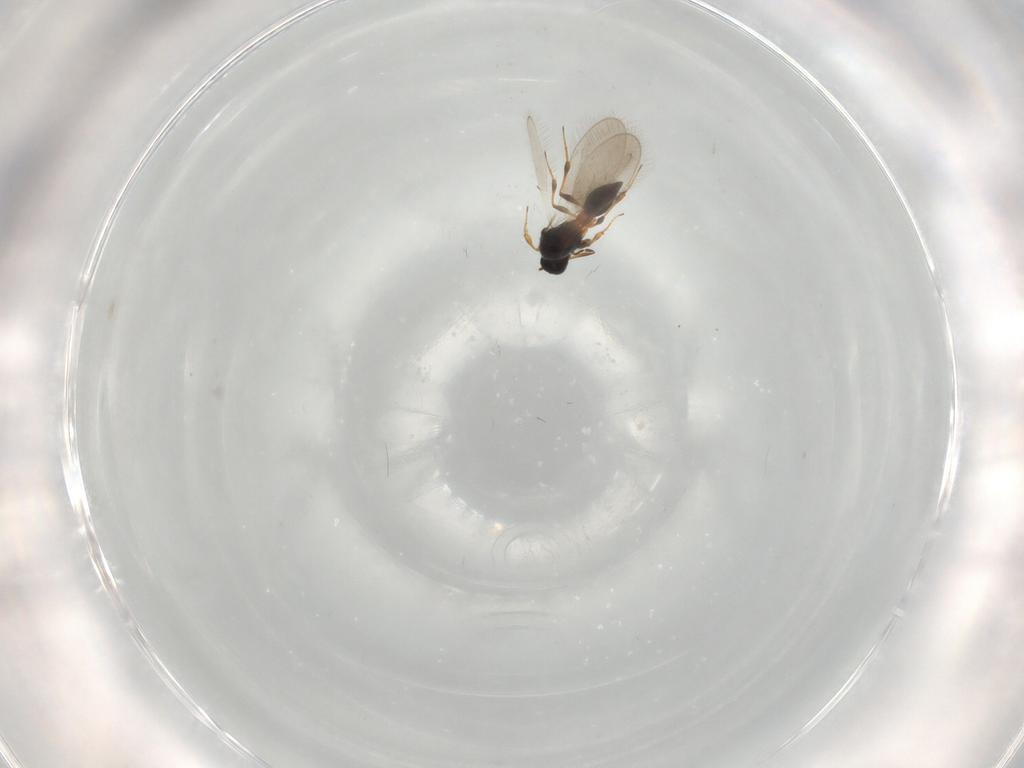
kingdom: Animalia
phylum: Arthropoda
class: Insecta
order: Hymenoptera
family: Platygastridae
